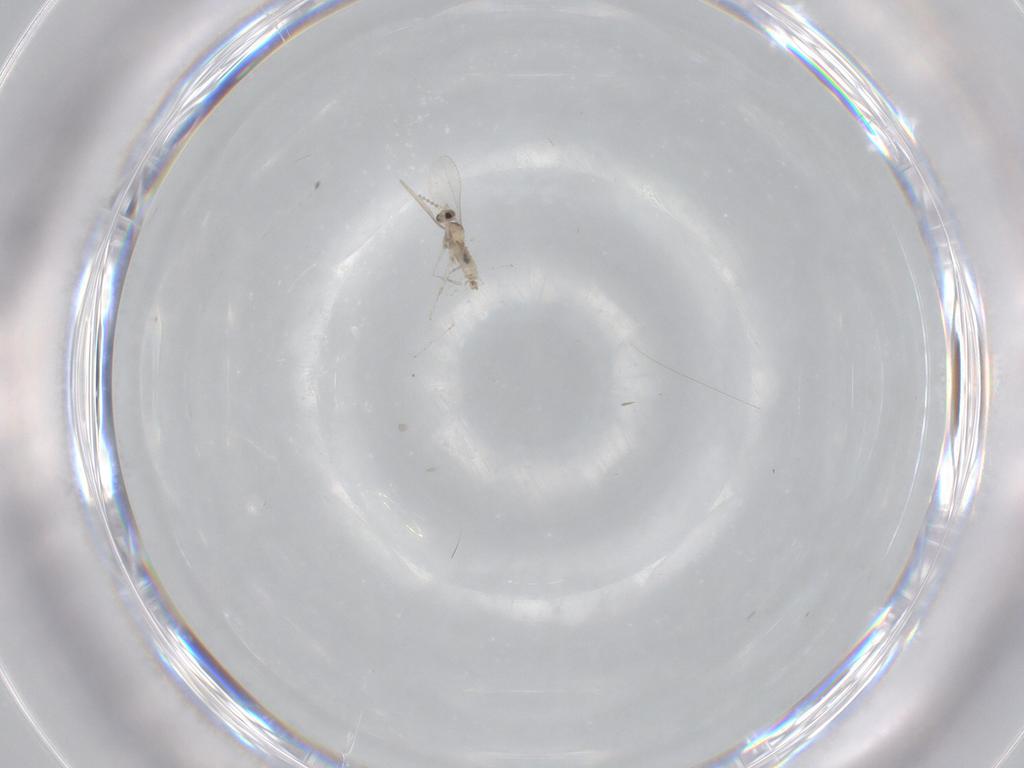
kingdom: Animalia
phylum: Arthropoda
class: Insecta
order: Diptera
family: Cecidomyiidae
